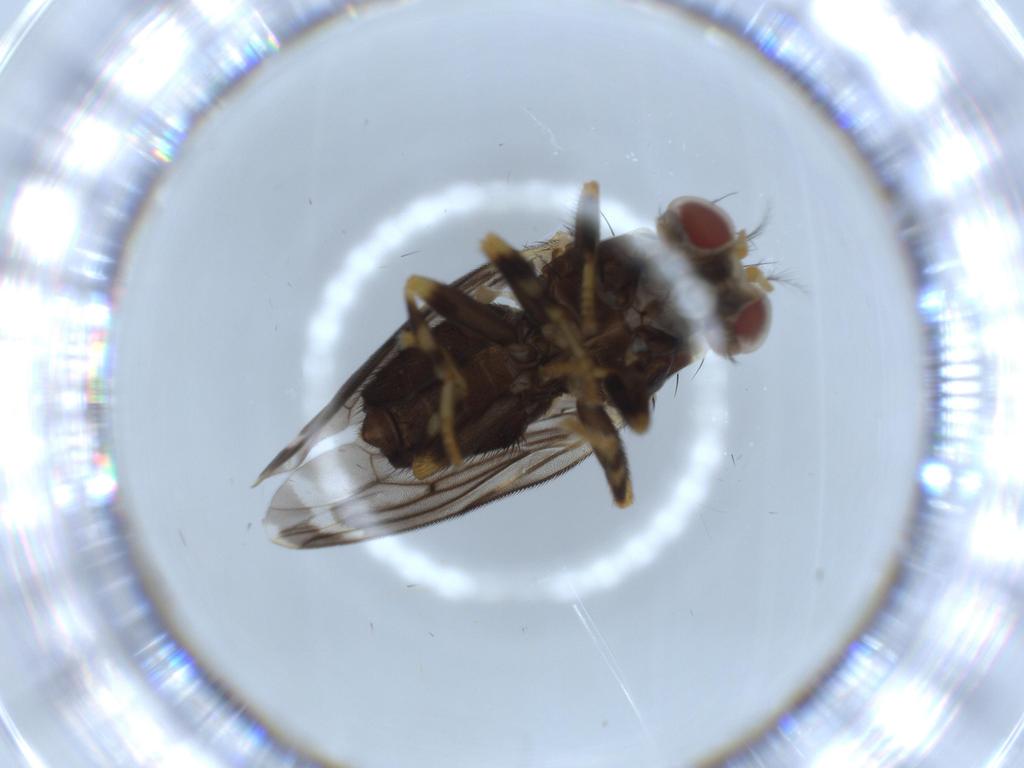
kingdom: Animalia
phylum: Arthropoda
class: Insecta
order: Diptera
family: Periscelididae
